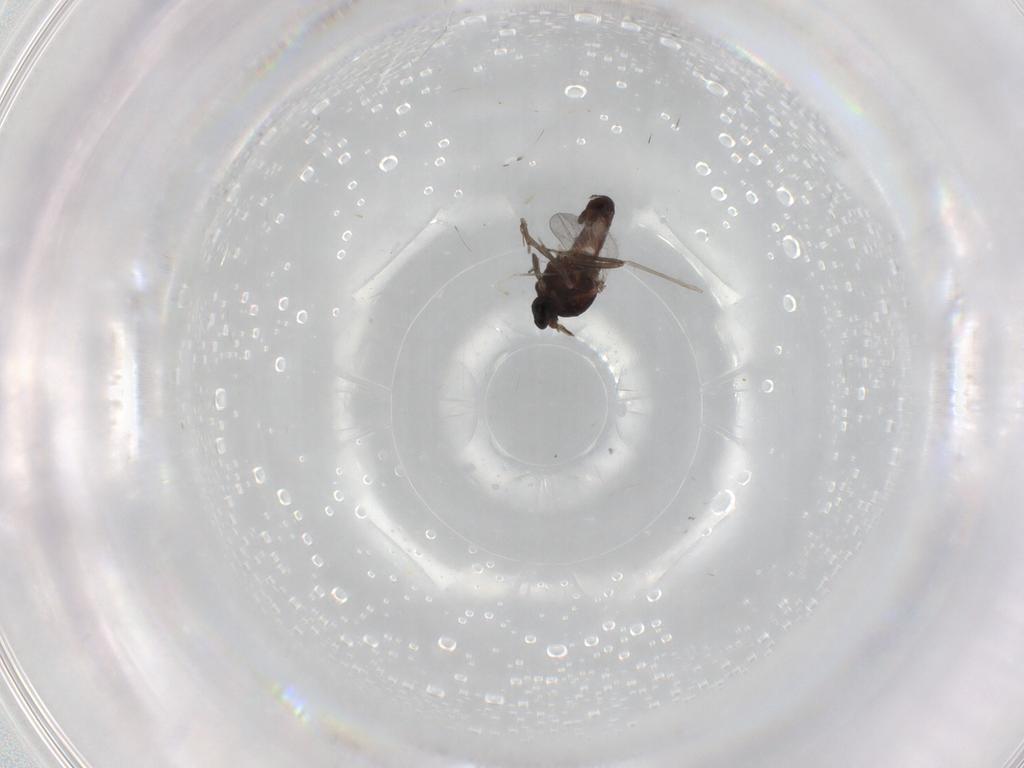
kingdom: Animalia
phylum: Arthropoda
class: Insecta
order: Diptera
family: Ceratopogonidae
